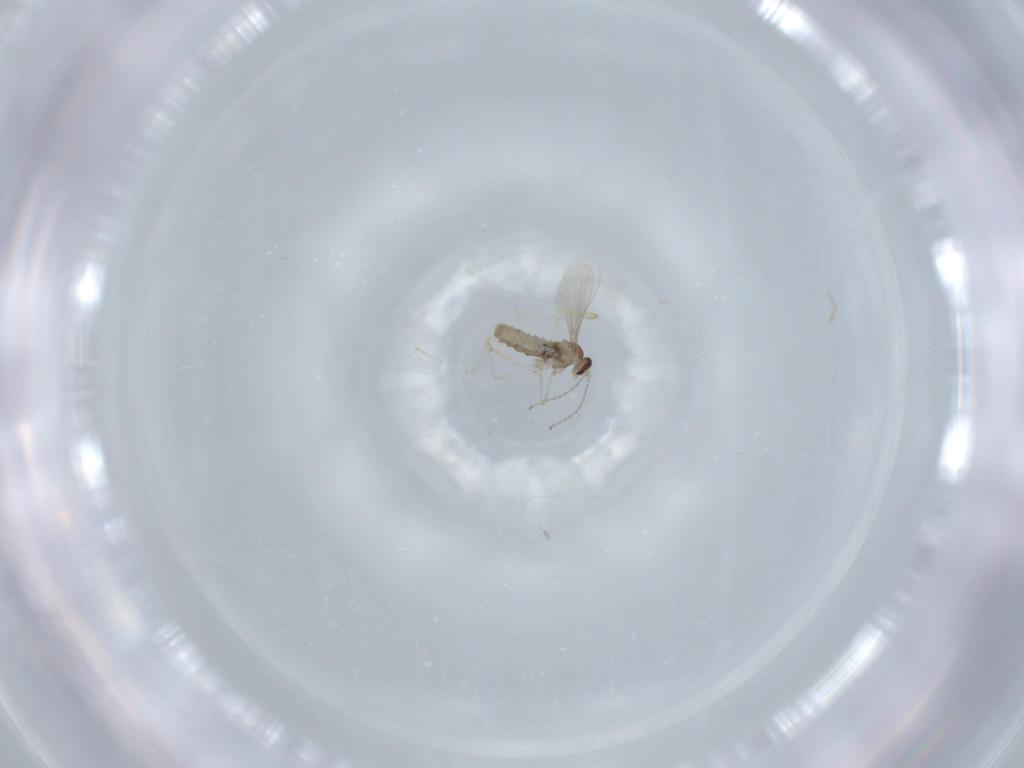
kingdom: Animalia
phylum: Arthropoda
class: Insecta
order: Diptera
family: Cecidomyiidae
